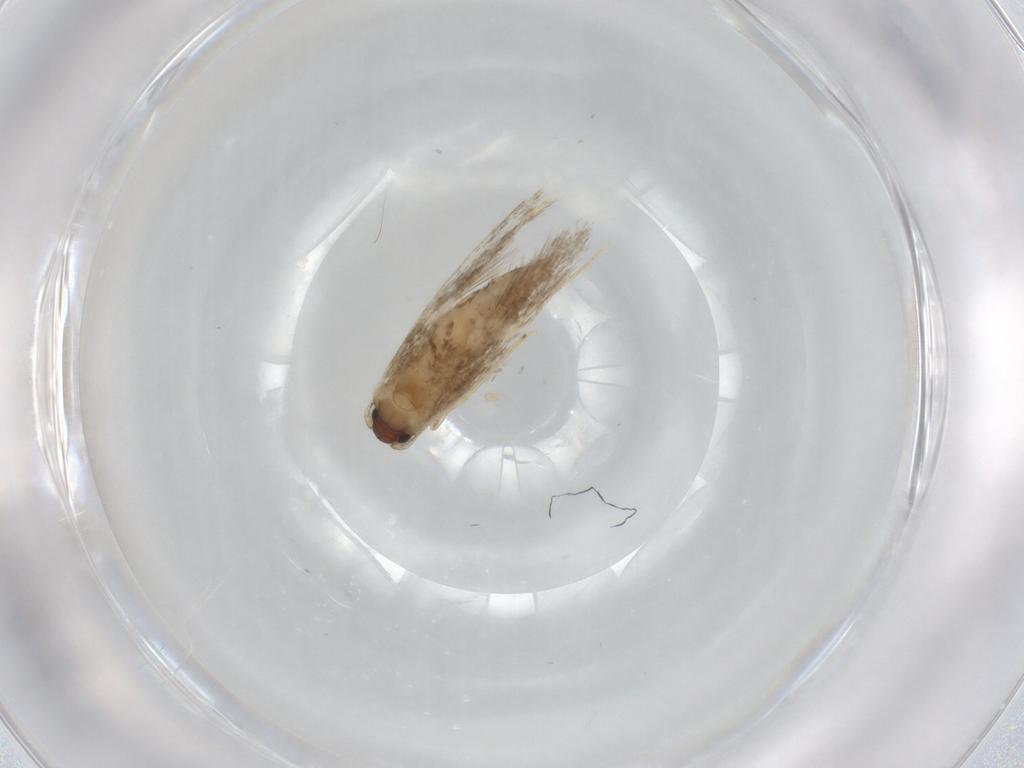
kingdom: Animalia
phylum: Arthropoda
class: Insecta
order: Lepidoptera
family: Tineidae
